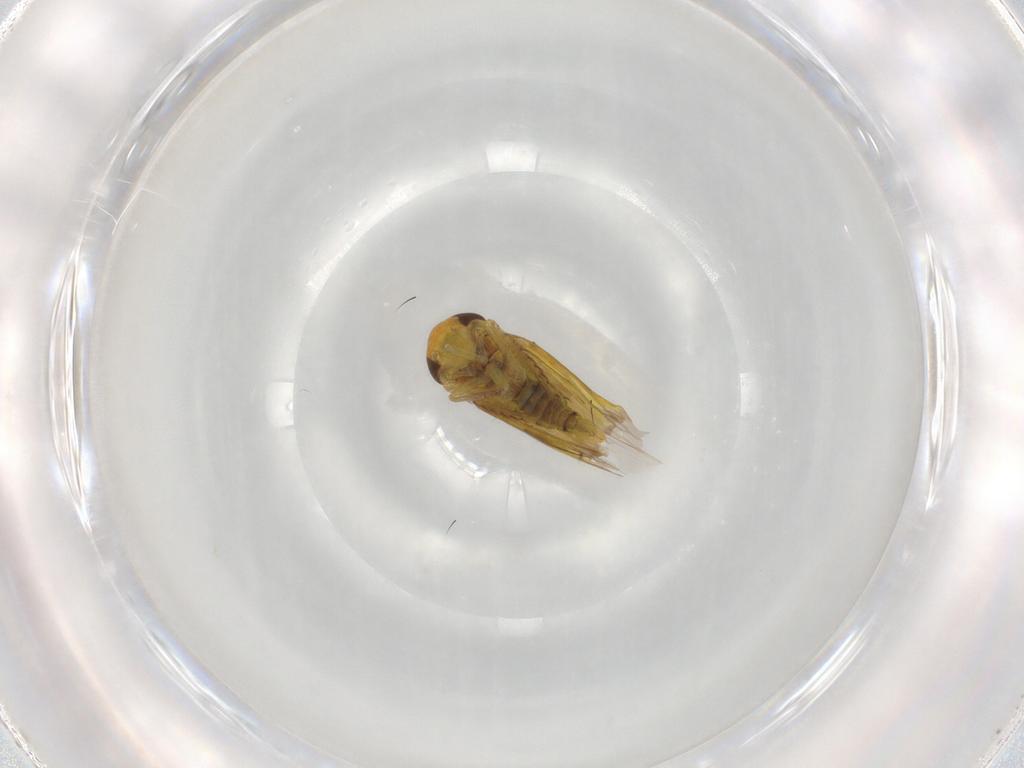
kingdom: Animalia
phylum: Arthropoda
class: Insecta
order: Hemiptera
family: Cicadellidae
